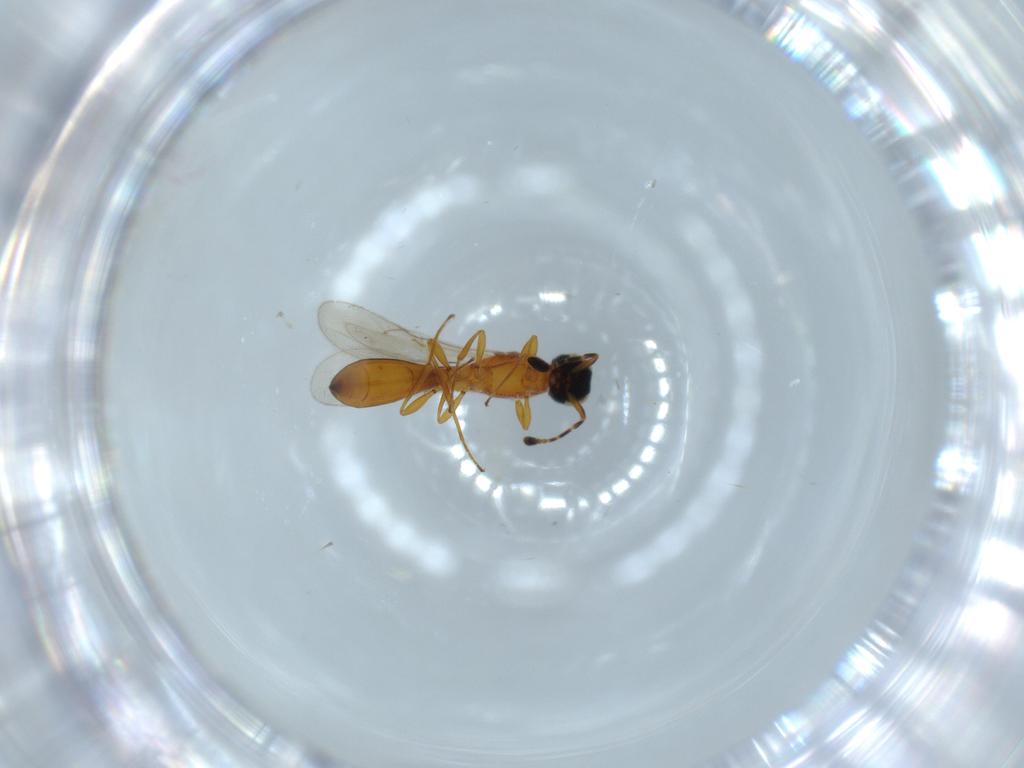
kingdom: Animalia
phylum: Arthropoda
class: Insecta
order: Hymenoptera
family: Scelionidae
